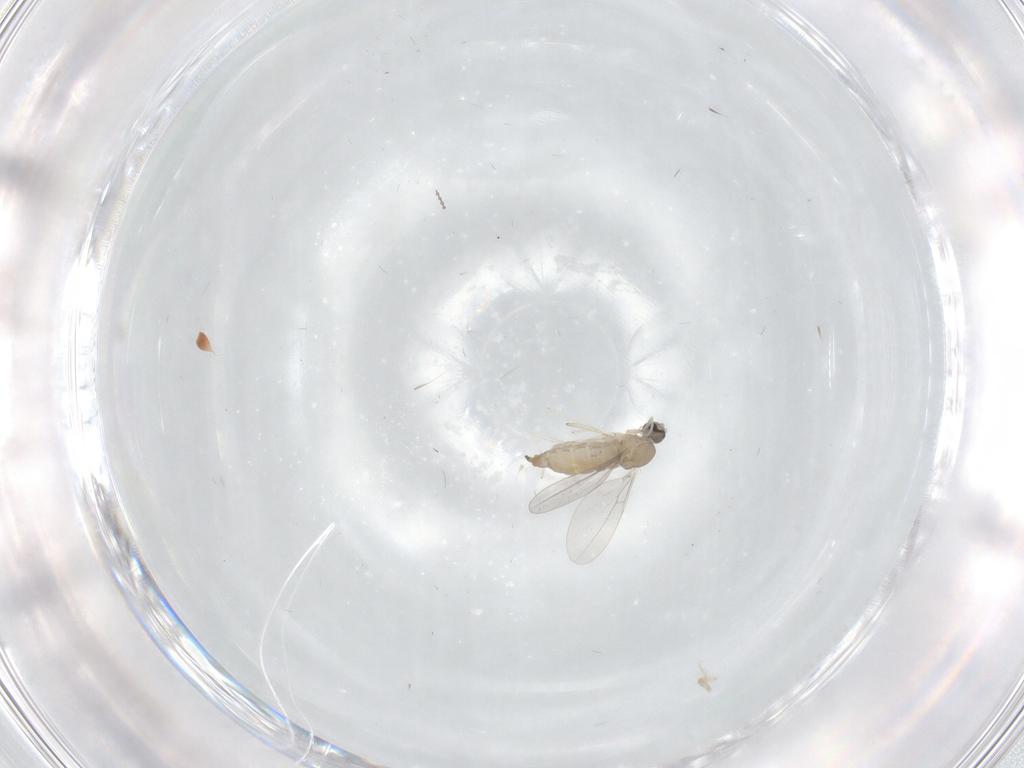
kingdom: Animalia
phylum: Arthropoda
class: Insecta
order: Diptera
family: Cecidomyiidae
